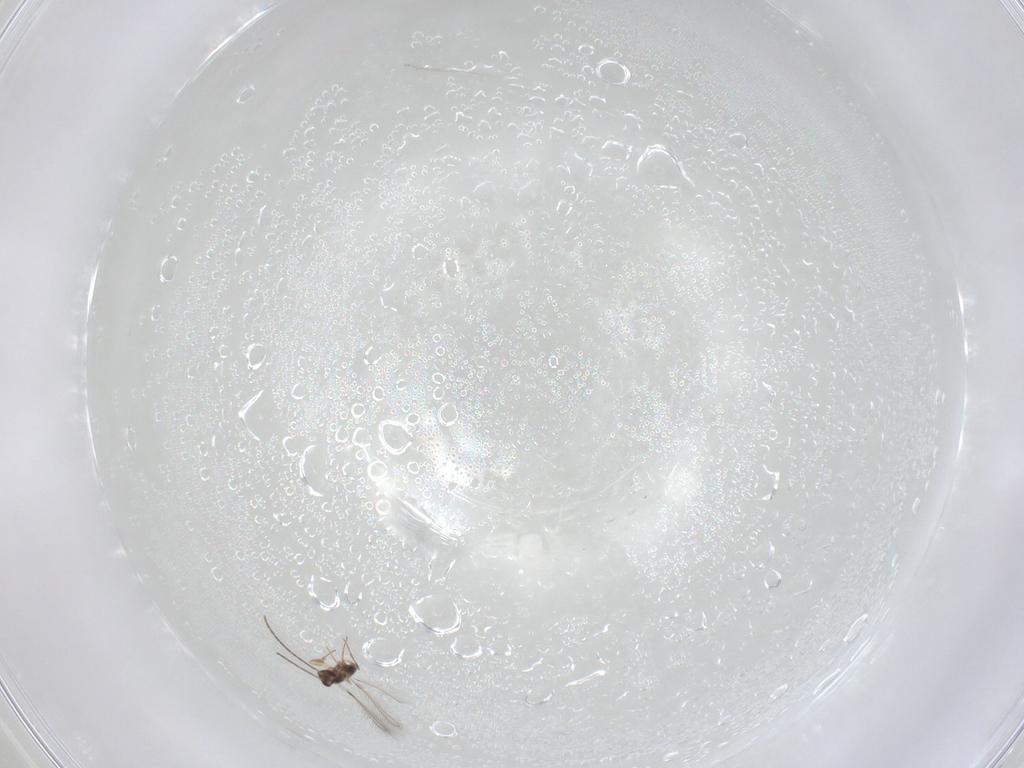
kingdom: Animalia
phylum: Arthropoda
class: Insecta
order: Hymenoptera
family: Mymaridae
